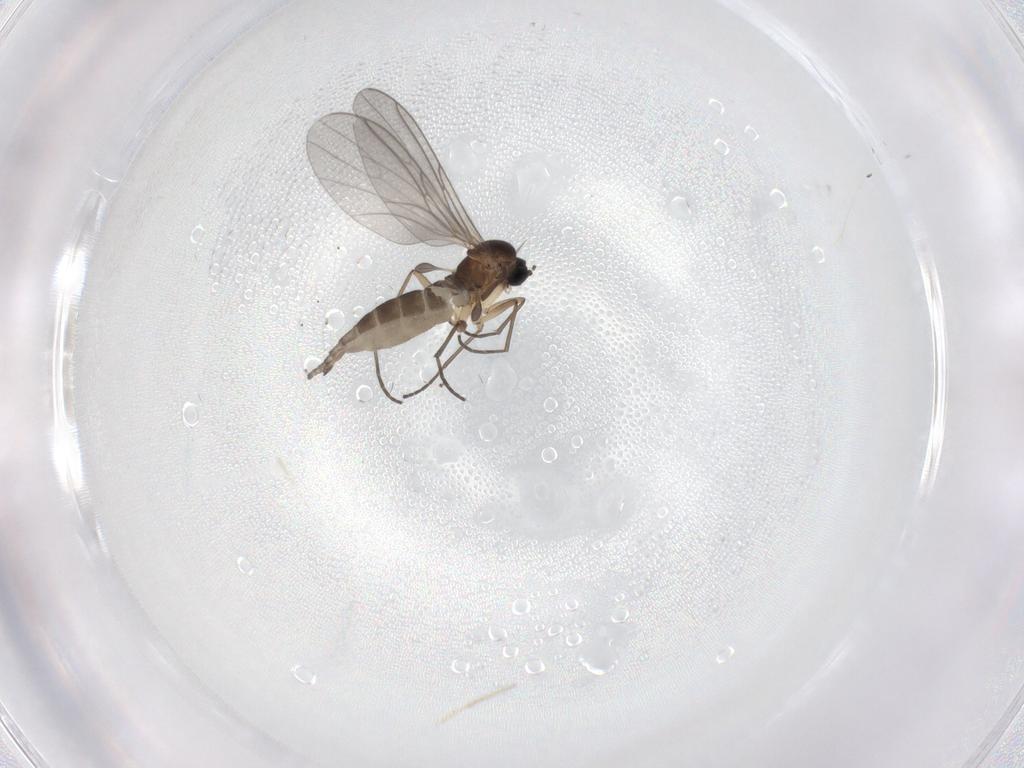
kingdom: Animalia
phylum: Arthropoda
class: Insecta
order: Diptera
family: Sciaridae
